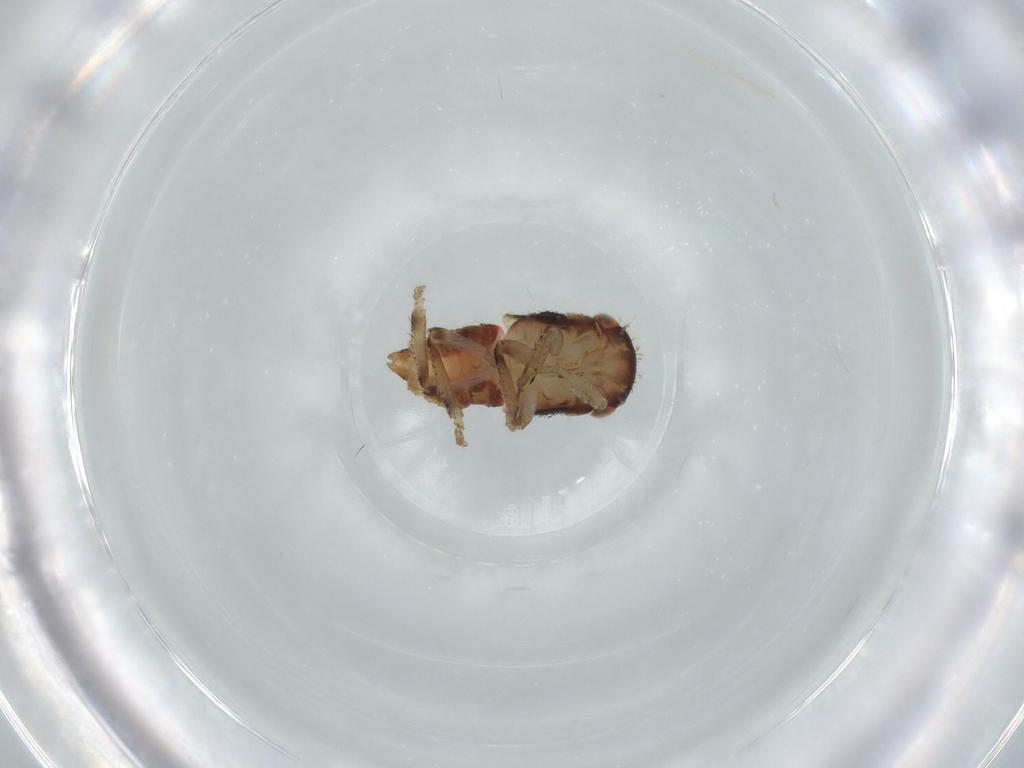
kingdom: Animalia
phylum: Arthropoda
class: Insecta
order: Hemiptera
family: Cicadellidae
